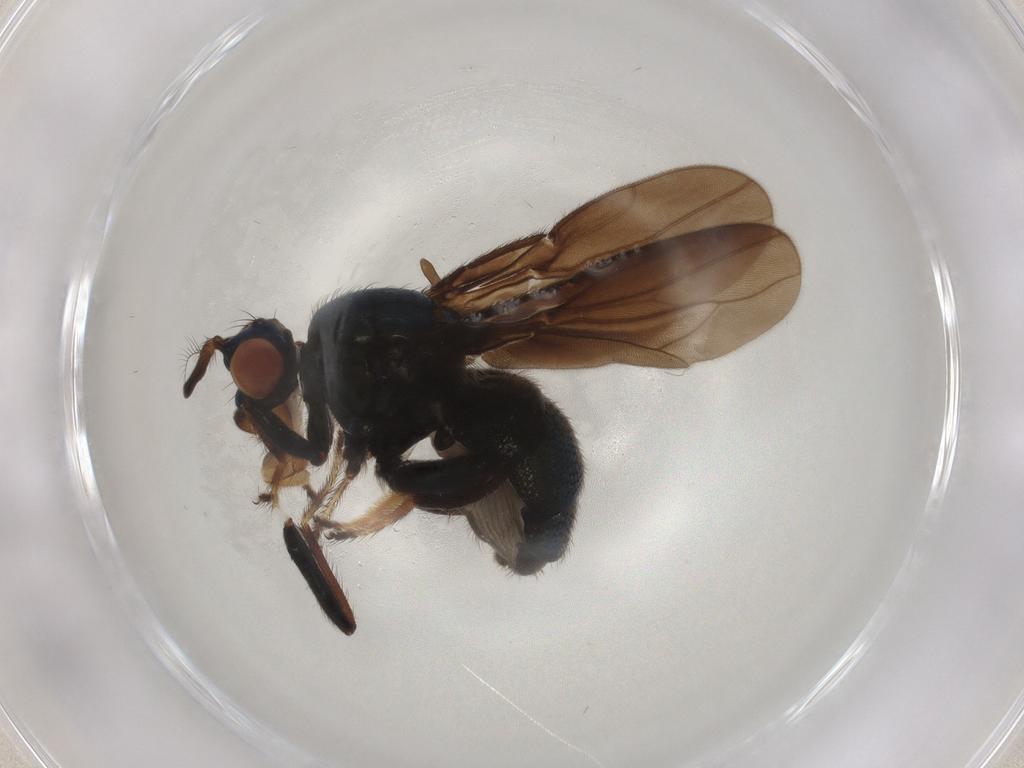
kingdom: Animalia
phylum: Arthropoda
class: Insecta
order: Diptera
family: Ephydridae
